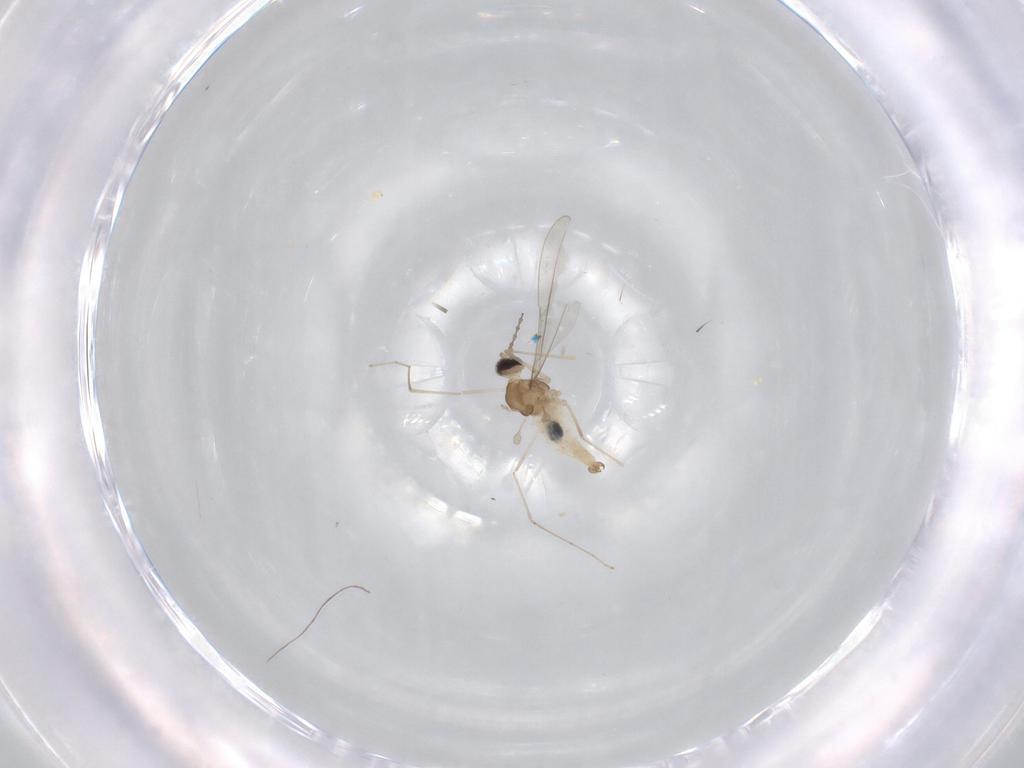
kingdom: Animalia
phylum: Arthropoda
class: Insecta
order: Diptera
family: Cecidomyiidae
